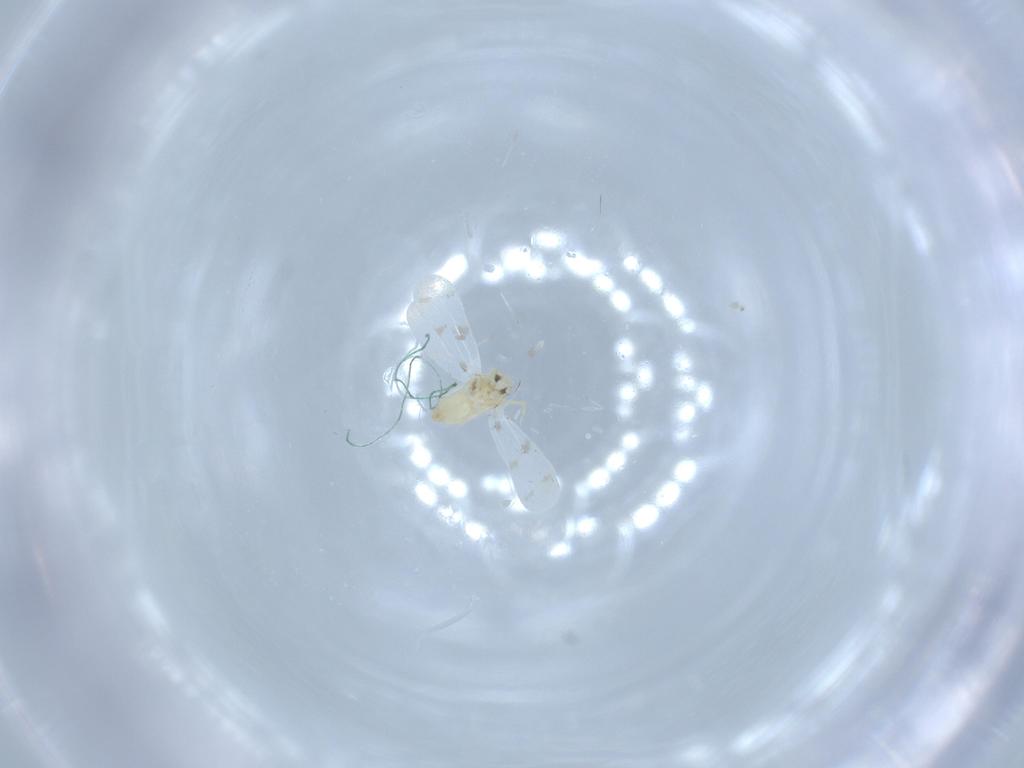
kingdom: Animalia
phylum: Arthropoda
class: Insecta
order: Hemiptera
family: Aleyrodidae
